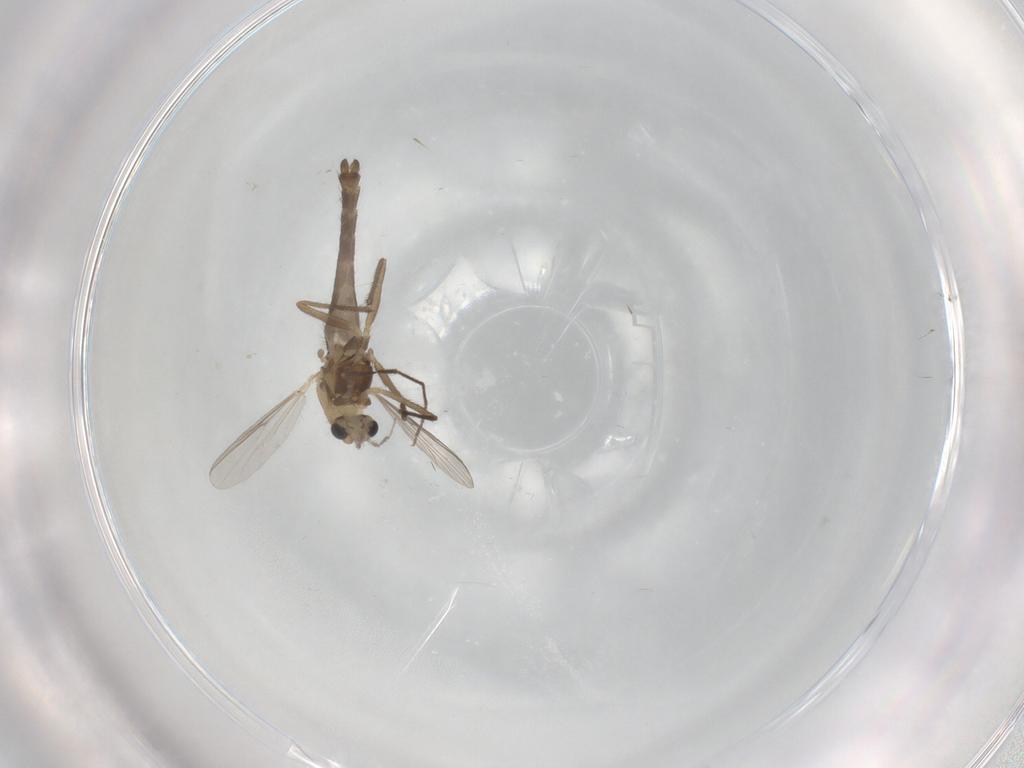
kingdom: Animalia
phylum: Arthropoda
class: Insecta
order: Diptera
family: Chironomidae
